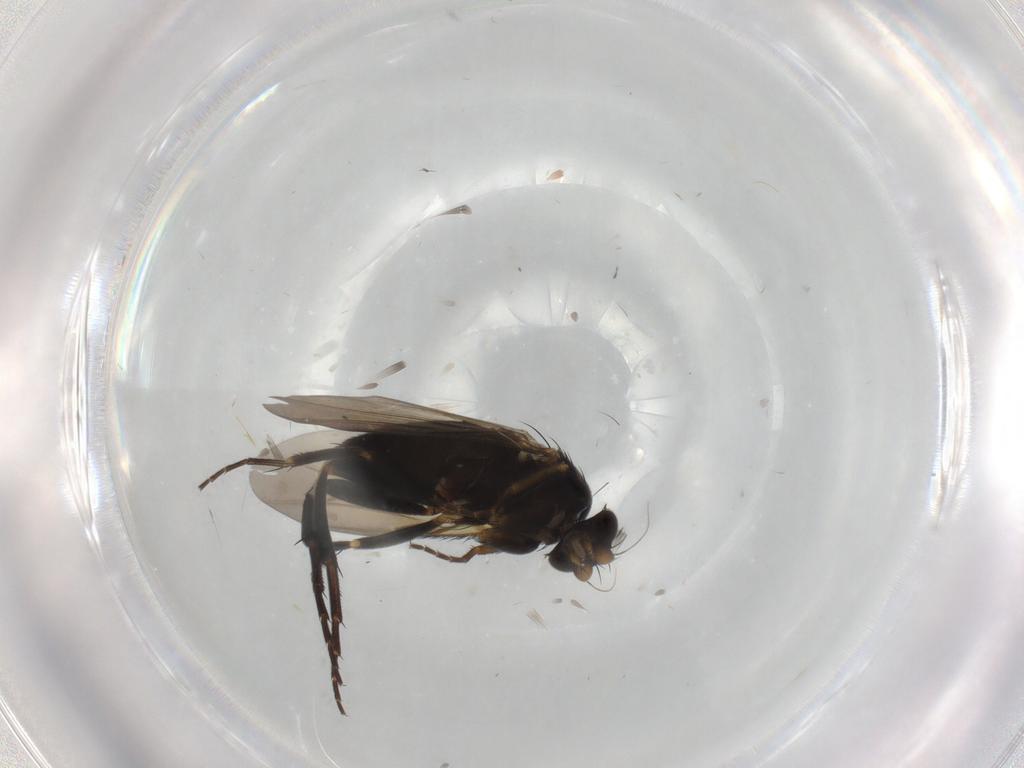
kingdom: Animalia
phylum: Arthropoda
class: Insecta
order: Diptera
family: Phoridae
